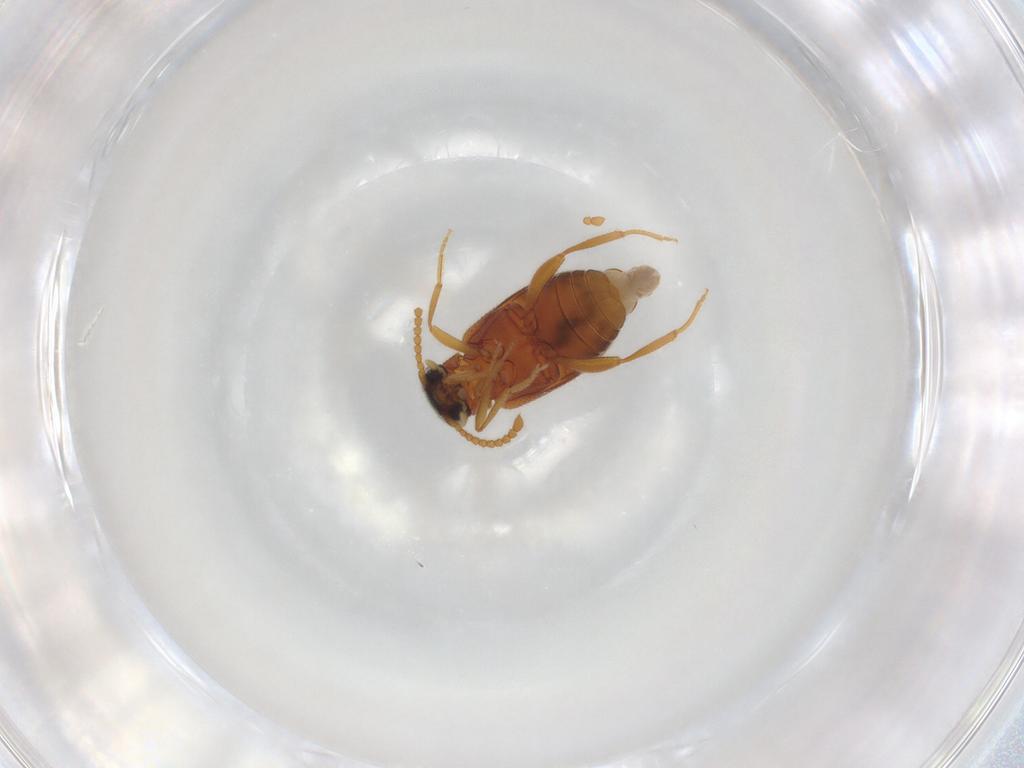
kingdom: Animalia
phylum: Arthropoda
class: Insecta
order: Coleoptera
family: Aderidae
